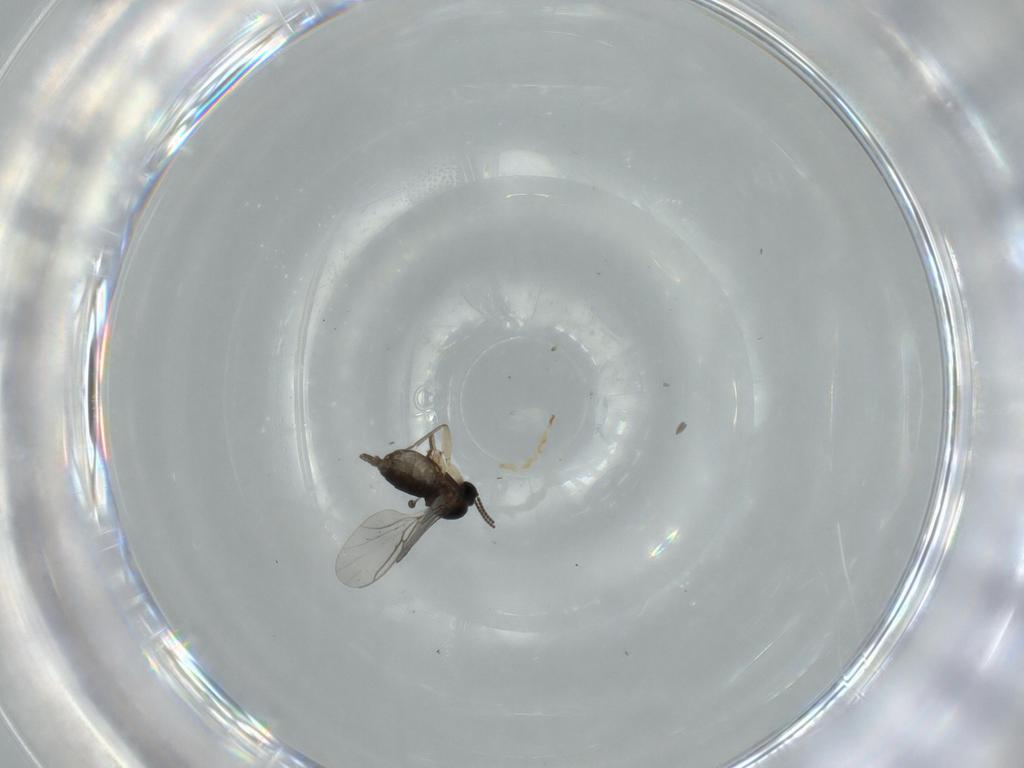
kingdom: Animalia
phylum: Arthropoda
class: Insecta
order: Diptera
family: Sciaridae
